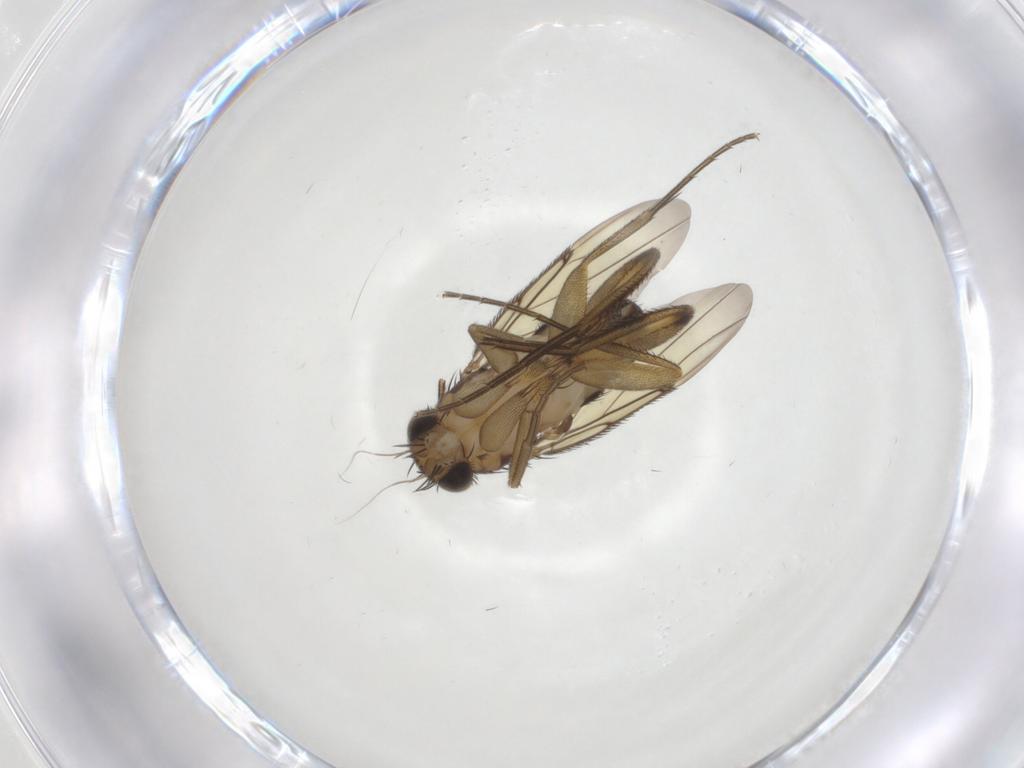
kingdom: Animalia
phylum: Arthropoda
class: Insecta
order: Diptera
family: Phoridae
